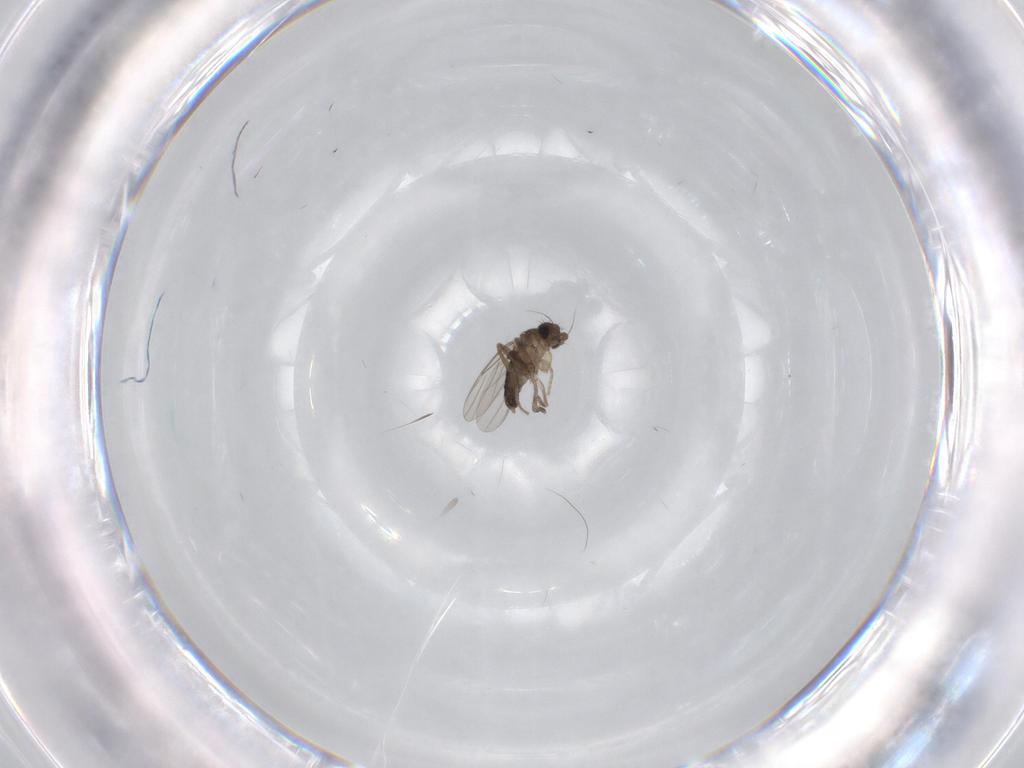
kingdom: Animalia
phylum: Arthropoda
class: Insecta
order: Diptera
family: Phoridae
